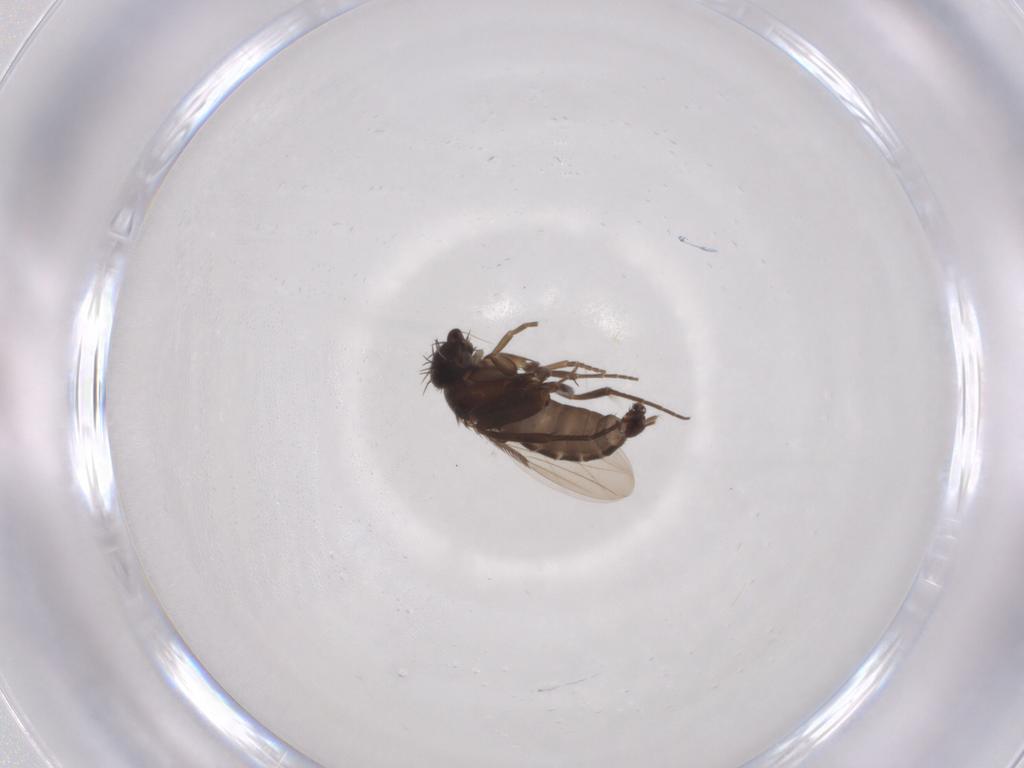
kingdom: Animalia
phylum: Arthropoda
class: Insecta
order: Diptera
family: Phoridae
